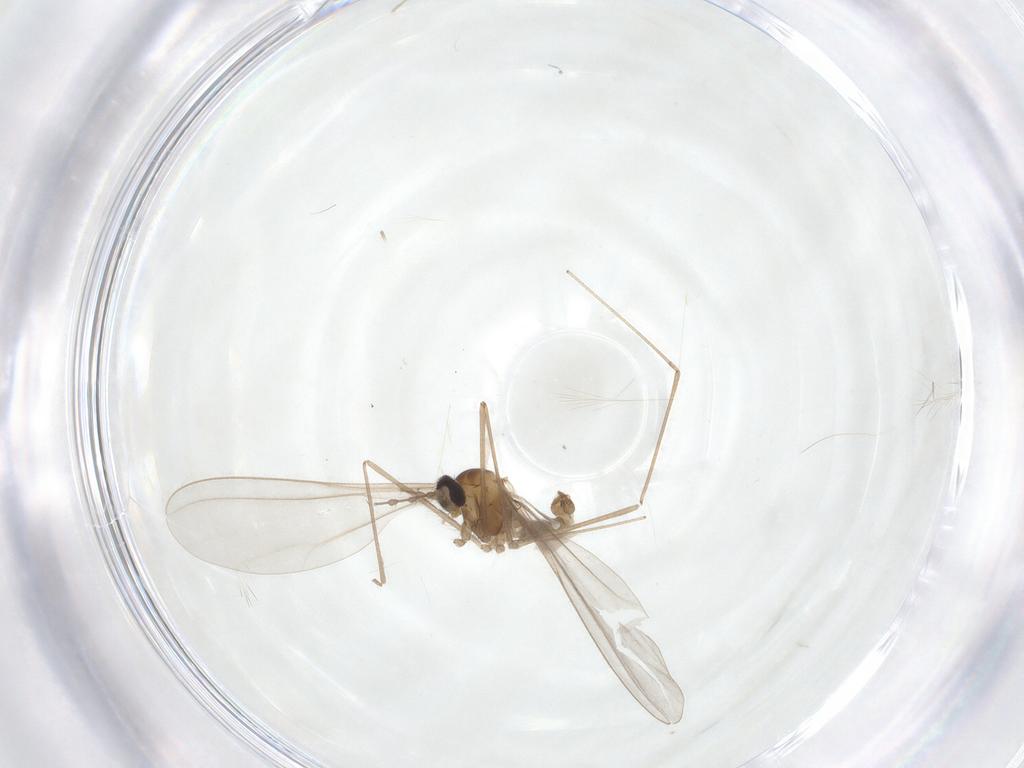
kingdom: Animalia
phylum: Arthropoda
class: Insecta
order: Diptera
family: Cecidomyiidae
